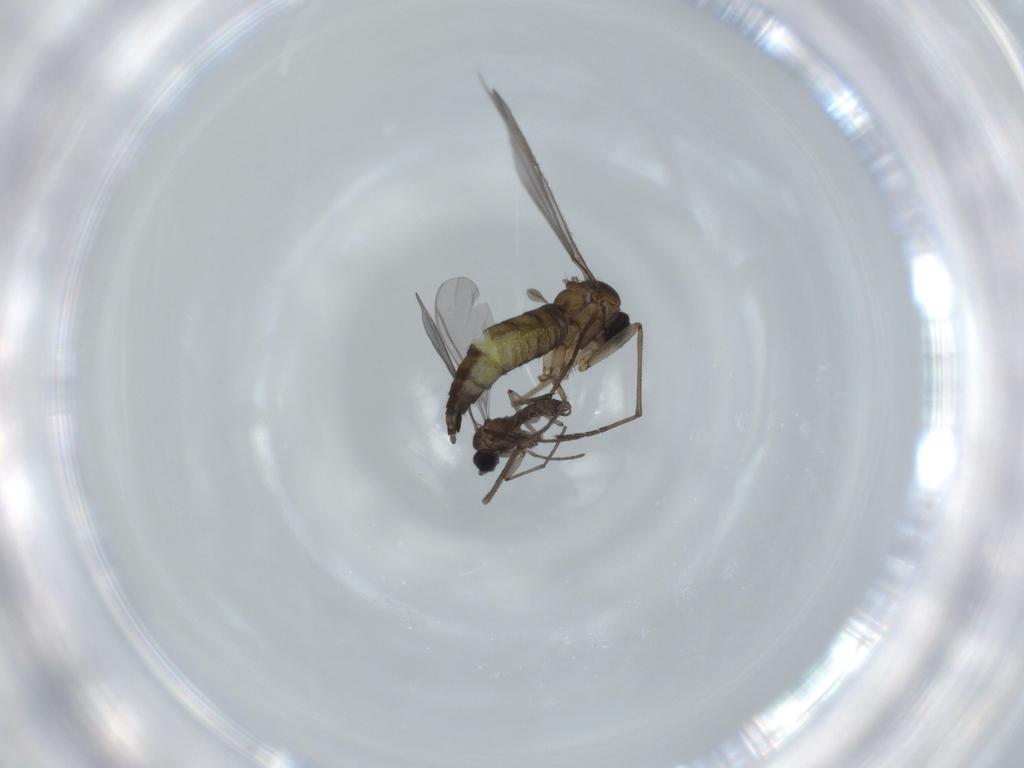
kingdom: Animalia
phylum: Arthropoda
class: Insecta
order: Diptera
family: Sciaridae
